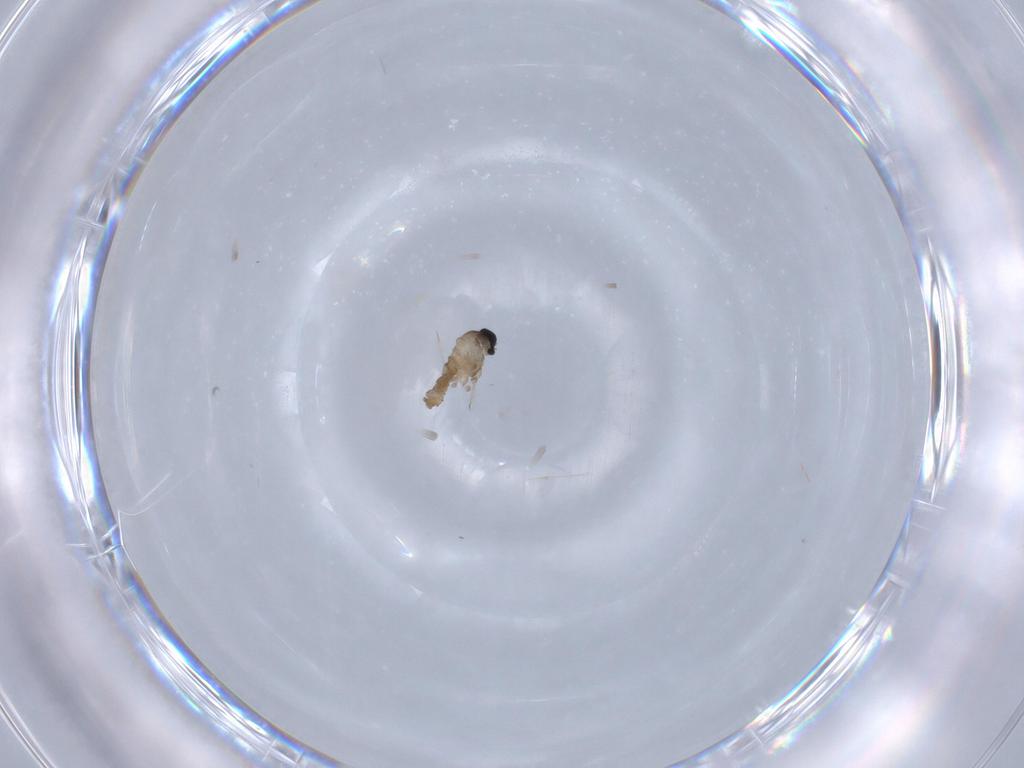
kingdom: Animalia
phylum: Arthropoda
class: Insecta
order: Diptera
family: Cecidomyiidae
